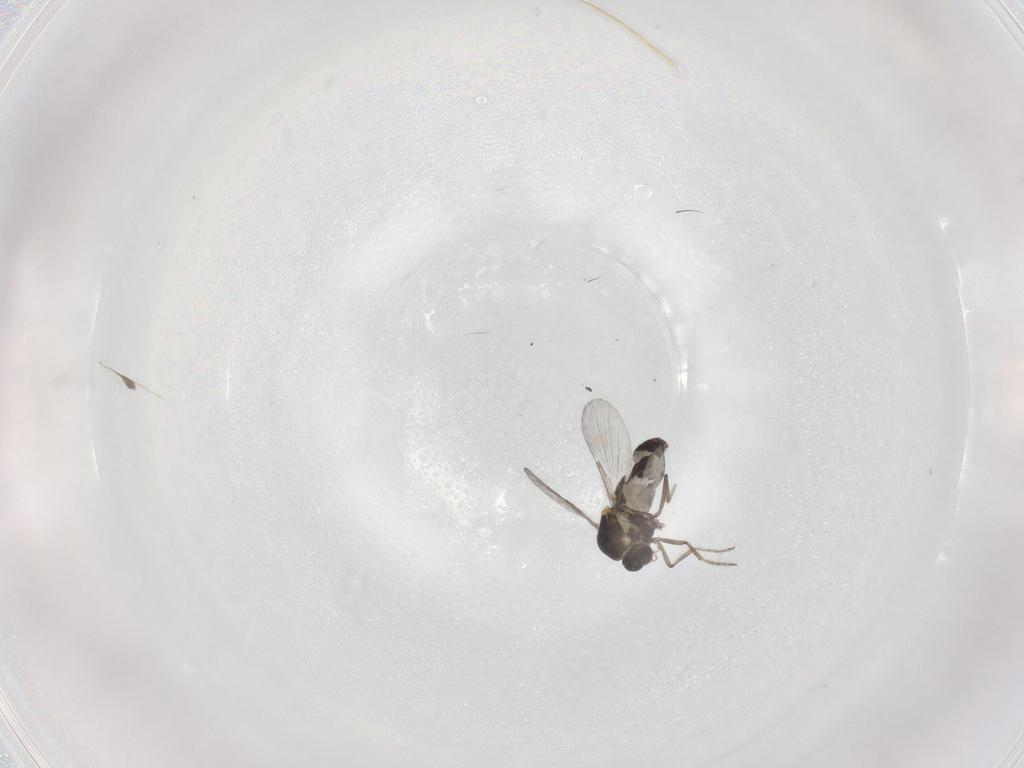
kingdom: Animalia
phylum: Arthropoda
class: Insecta
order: Diptera
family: Ceratopogonidae
